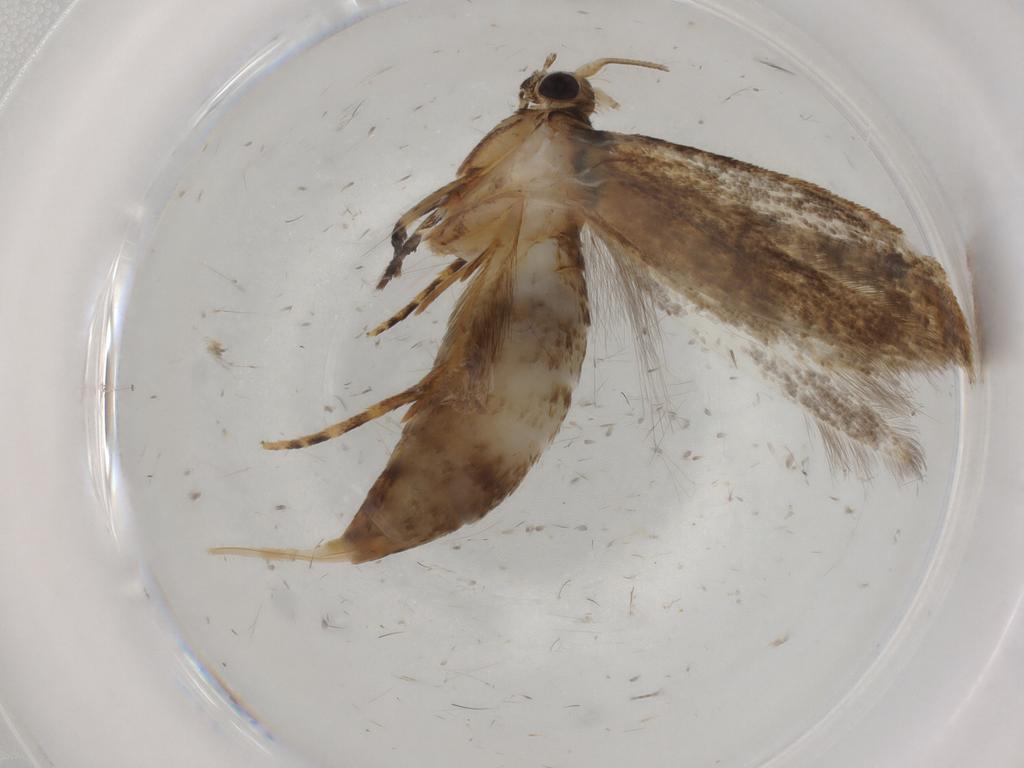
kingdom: Animalia
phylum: Arthropoda
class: Insecta
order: Lepidoptera
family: Tineidae
